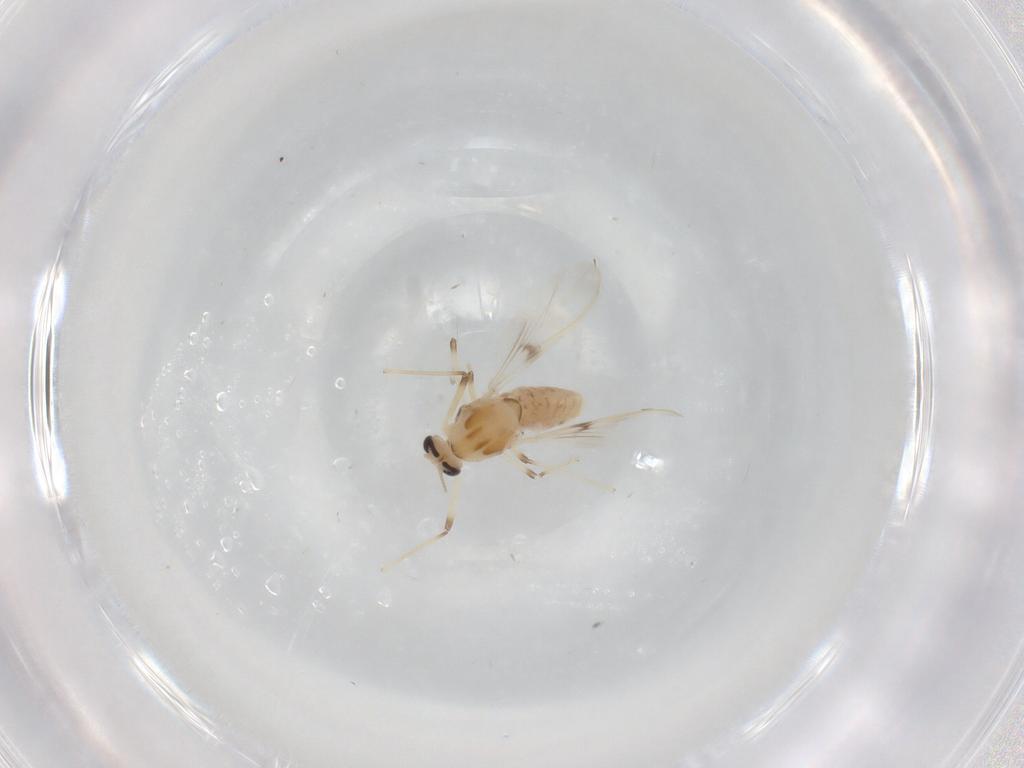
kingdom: Animalia
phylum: Arthropoda
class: Insecta
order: Diptera
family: Chironomidae
